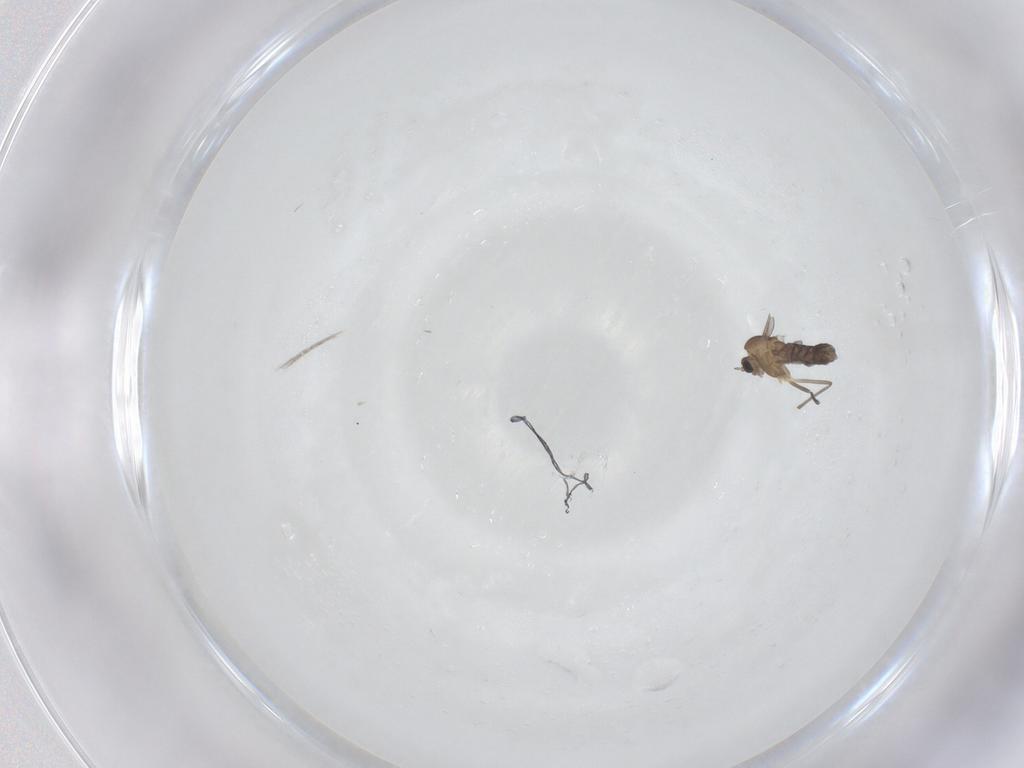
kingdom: Animalia
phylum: Arthropoda
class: Insecta
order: Diptera
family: Chironomidae
